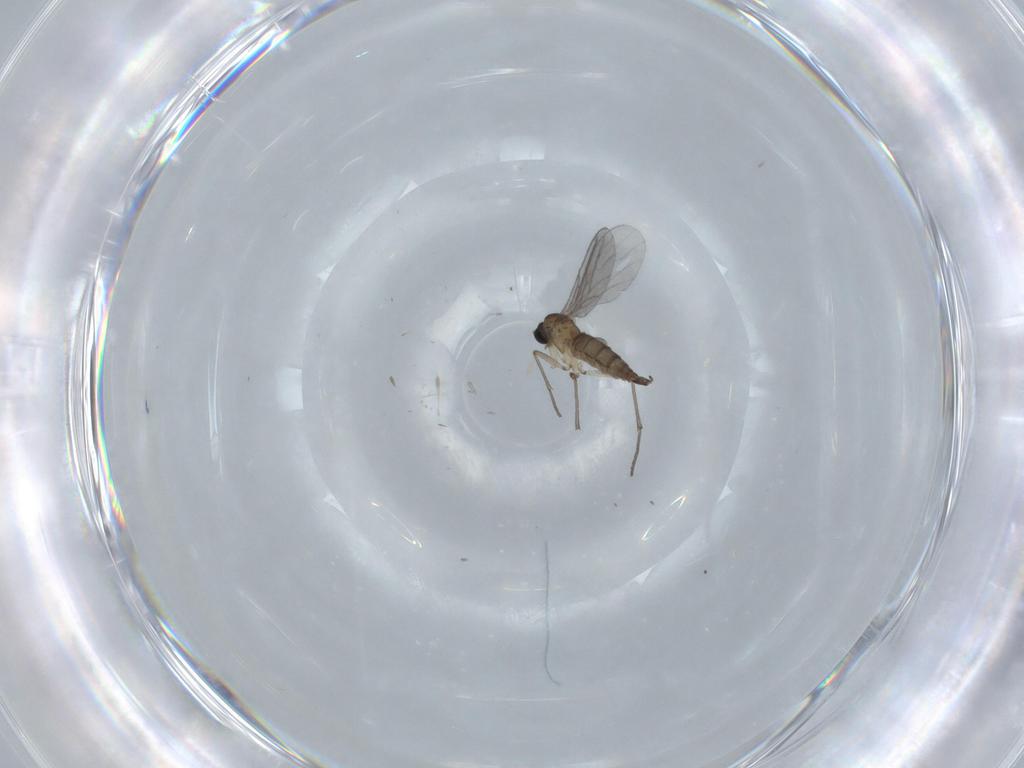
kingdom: Animalia
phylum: Arthropoda
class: Insecta
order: Diptera
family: Sciaridae
